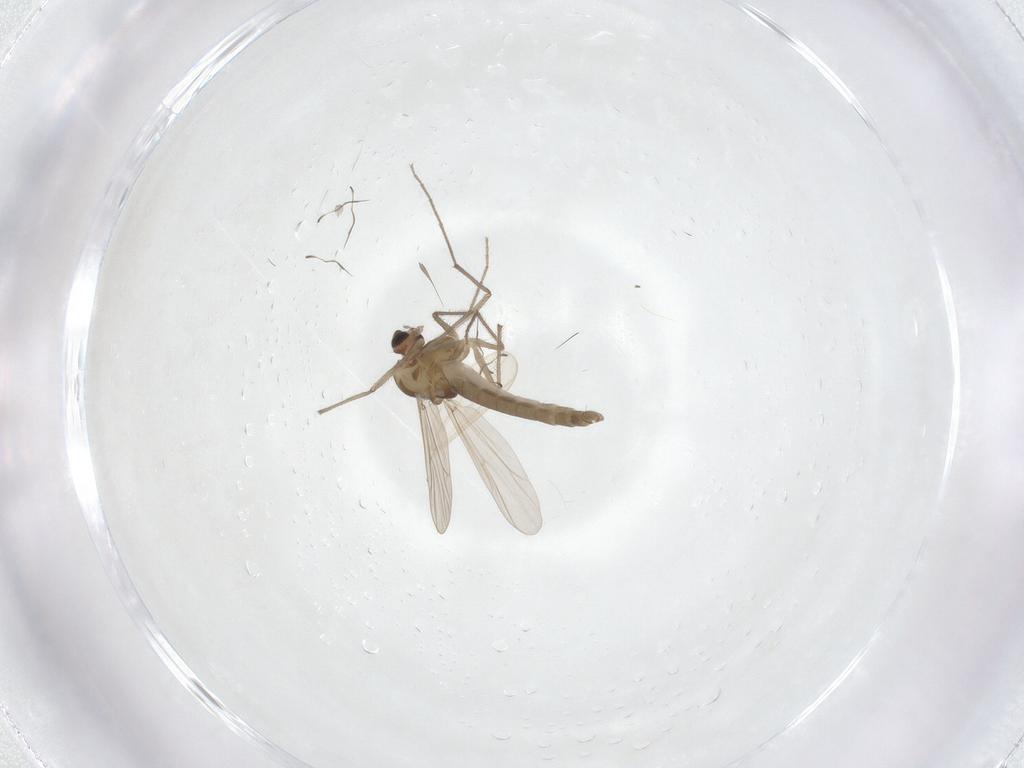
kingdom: Animalia
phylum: Arthropoda
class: Insecta
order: Diptera
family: Chironomidae
